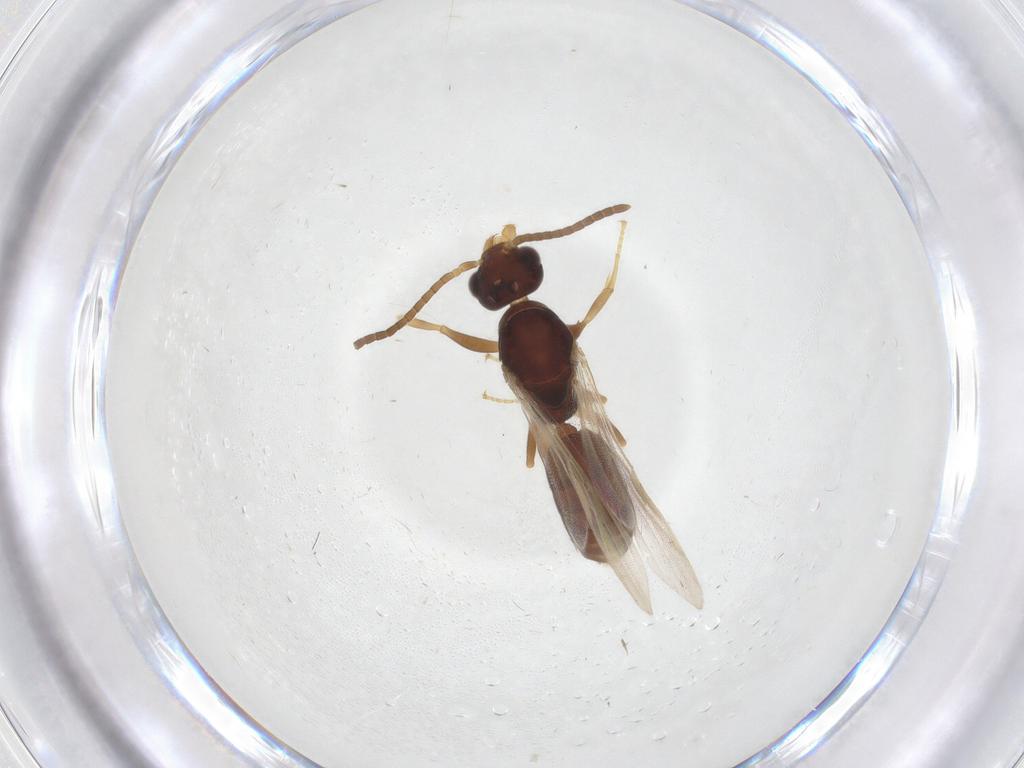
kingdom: Animalia
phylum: Arthropoda
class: Insecta
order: Hymenoptera
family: Formicidae
